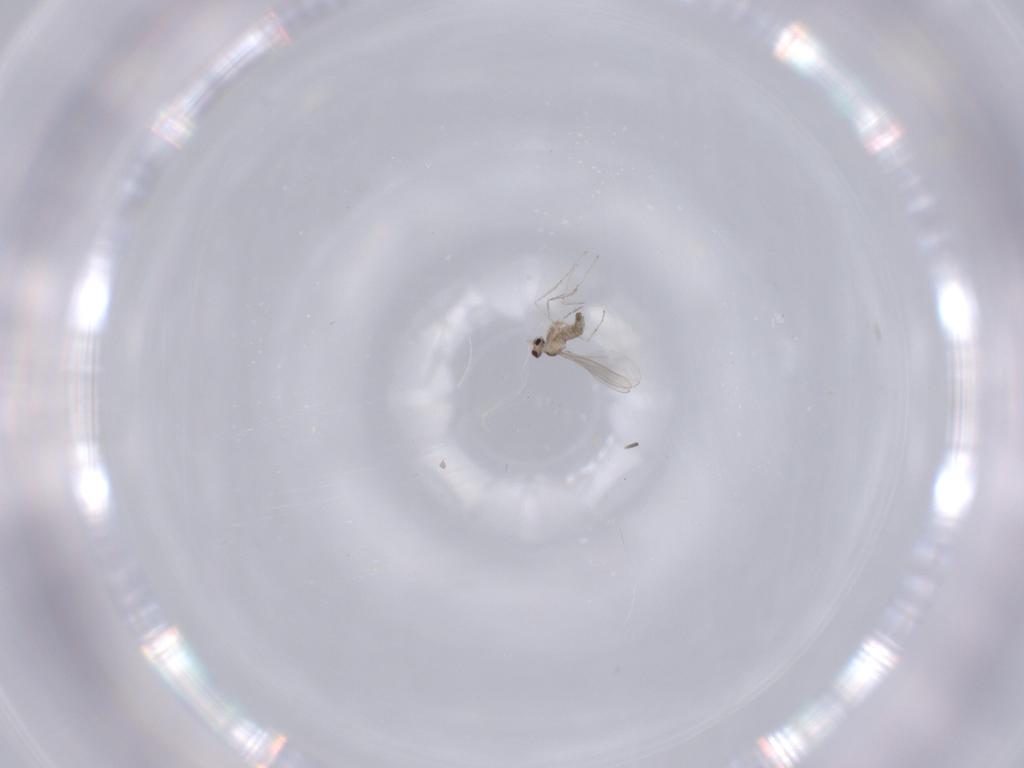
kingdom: Animalia
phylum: Arthropoda
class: Insecta
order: Diptera
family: Cecidomyiidae
